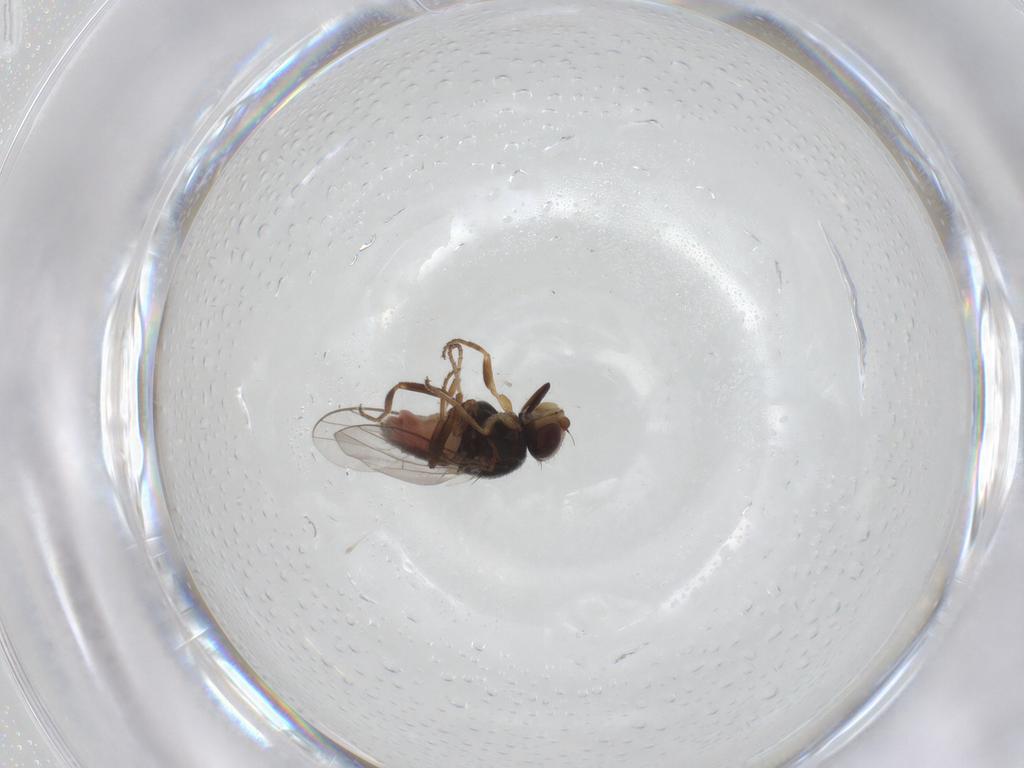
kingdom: Animalia
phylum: Arthropoda
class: Insecta
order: Diptera
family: Chloropidae
